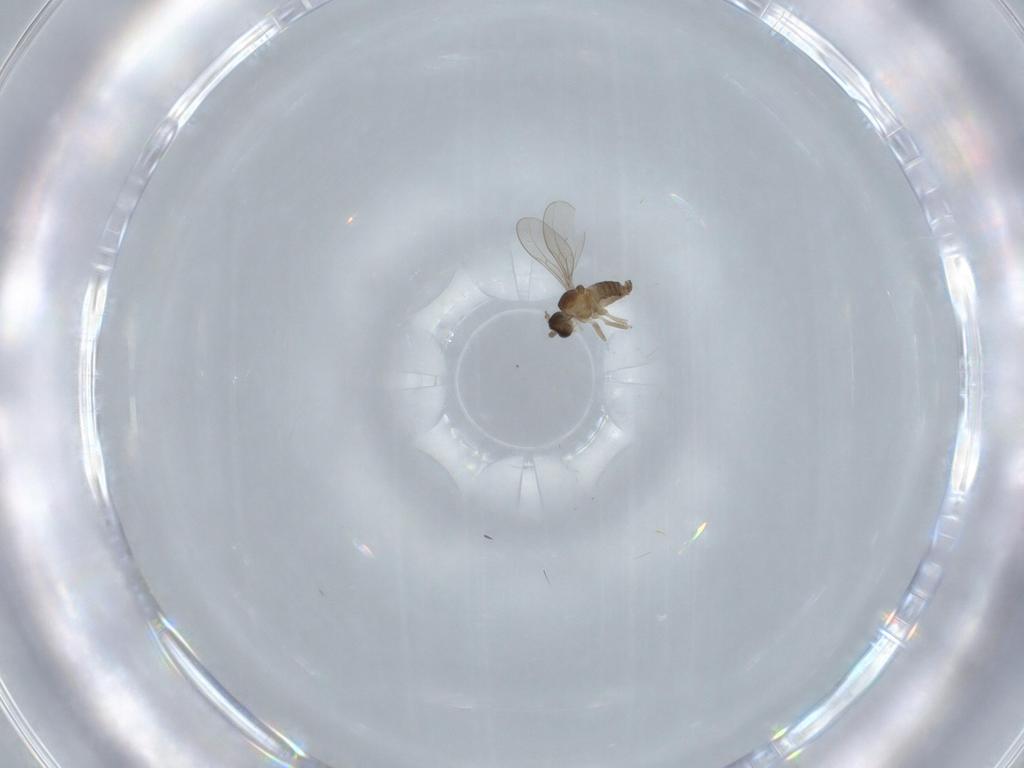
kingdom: Animalia
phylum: Arthropoda
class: Insecta
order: Diptera
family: Cecidomyiidae
